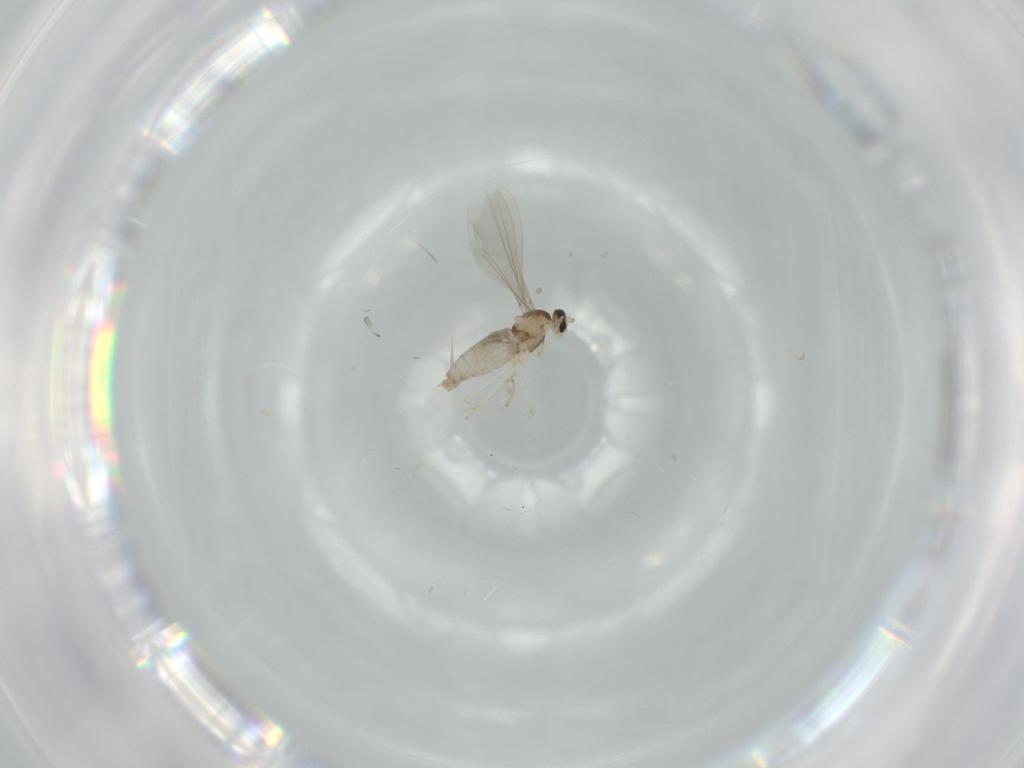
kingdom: Animalia
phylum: Arthropoda
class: Insecta
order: Diptera
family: Cecidomyiidae
